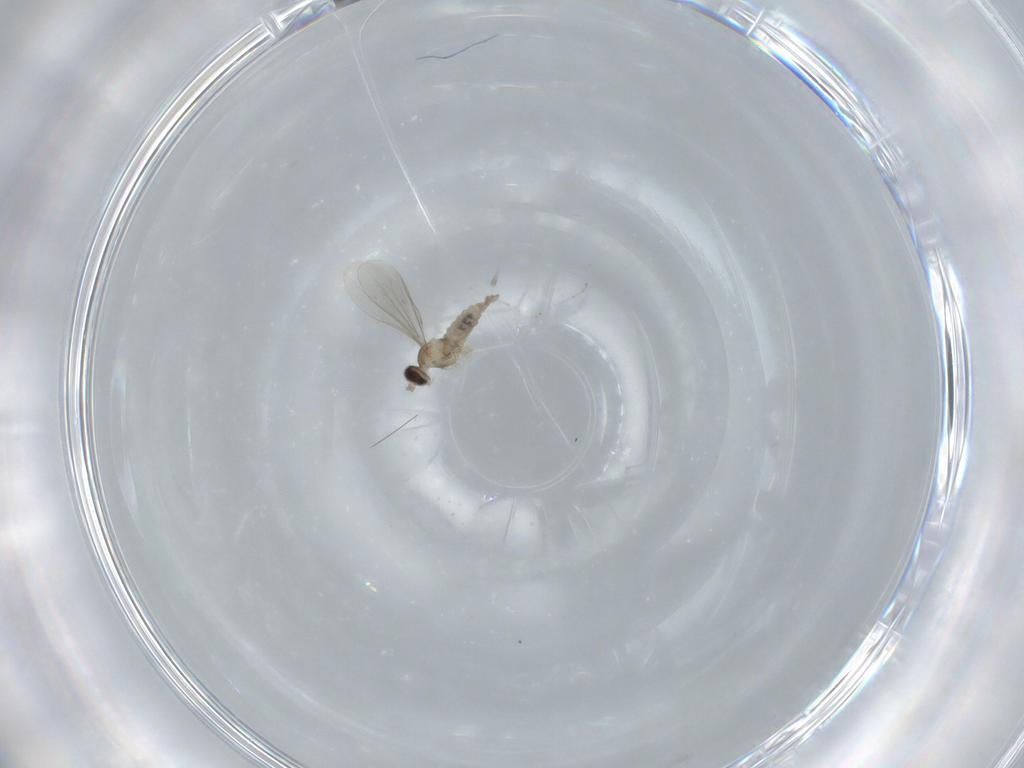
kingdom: Animalia
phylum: Arthropoda
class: Insecta
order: Diptera
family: Cecidomyiidae
